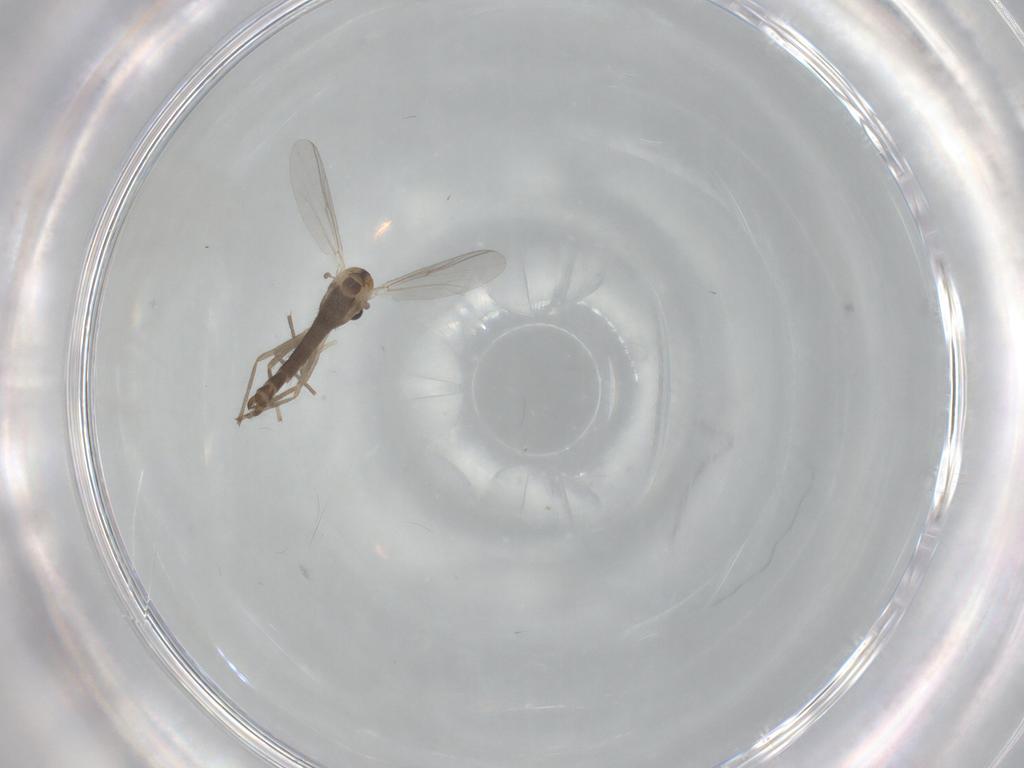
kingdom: Animalia
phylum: Arthropoda
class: Insecta
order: Diptera
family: Chironomidae
